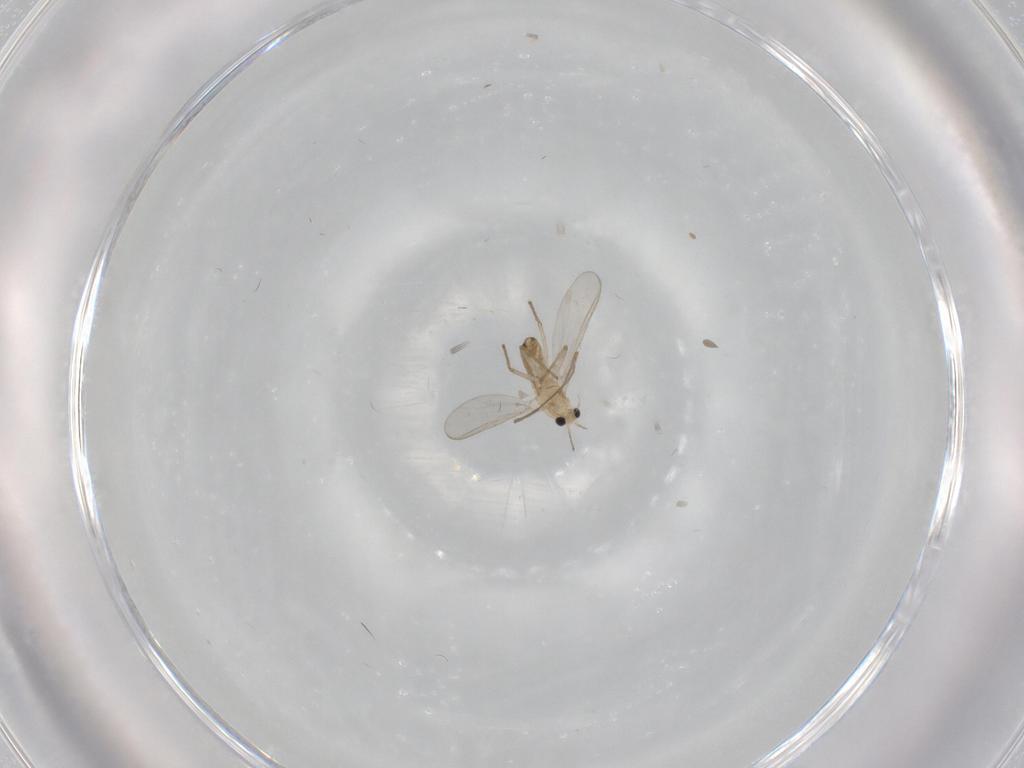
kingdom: Animalia
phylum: Arthropoda
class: Insecta
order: Diptera
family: Chironomidae
